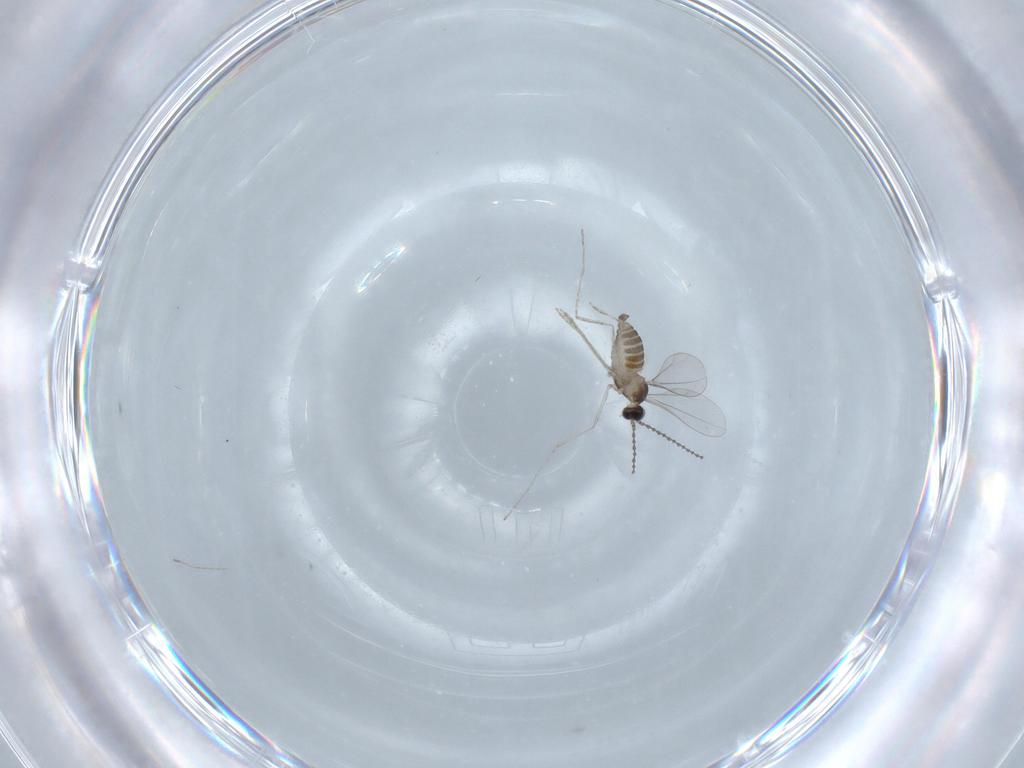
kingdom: Animalia
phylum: Arthropoda
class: Insecta
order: Diptera
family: Cecidomyiidae
